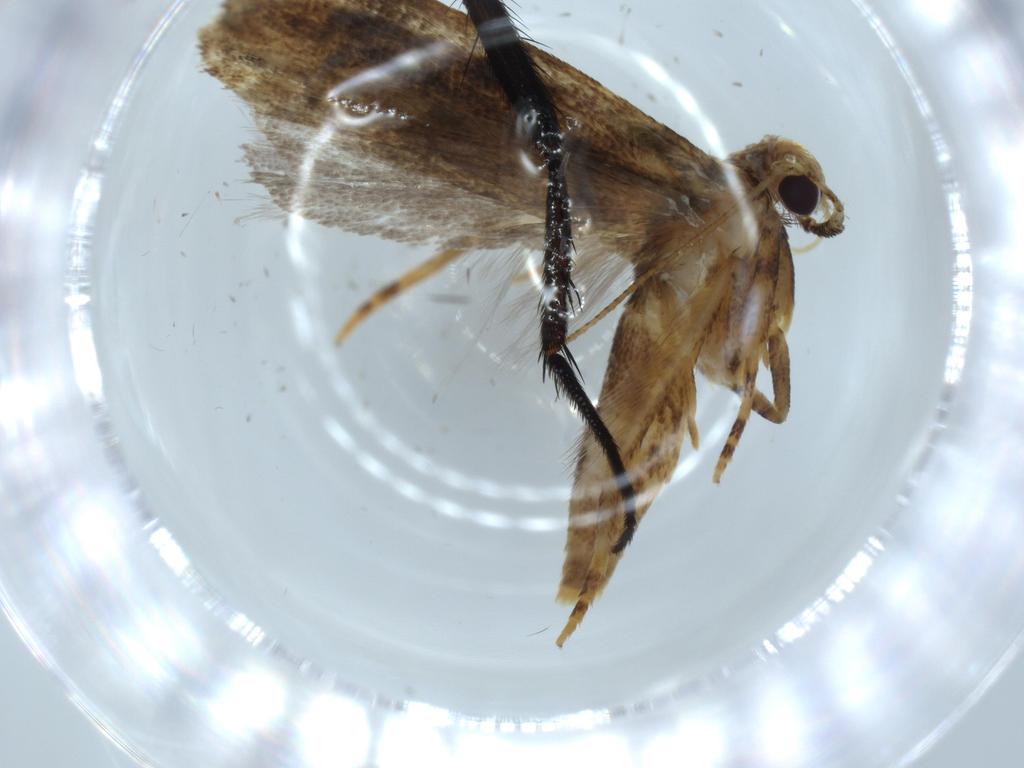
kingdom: Animalia
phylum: Arthropoda
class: Insecta
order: Lepidoptera
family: Autostichidae
